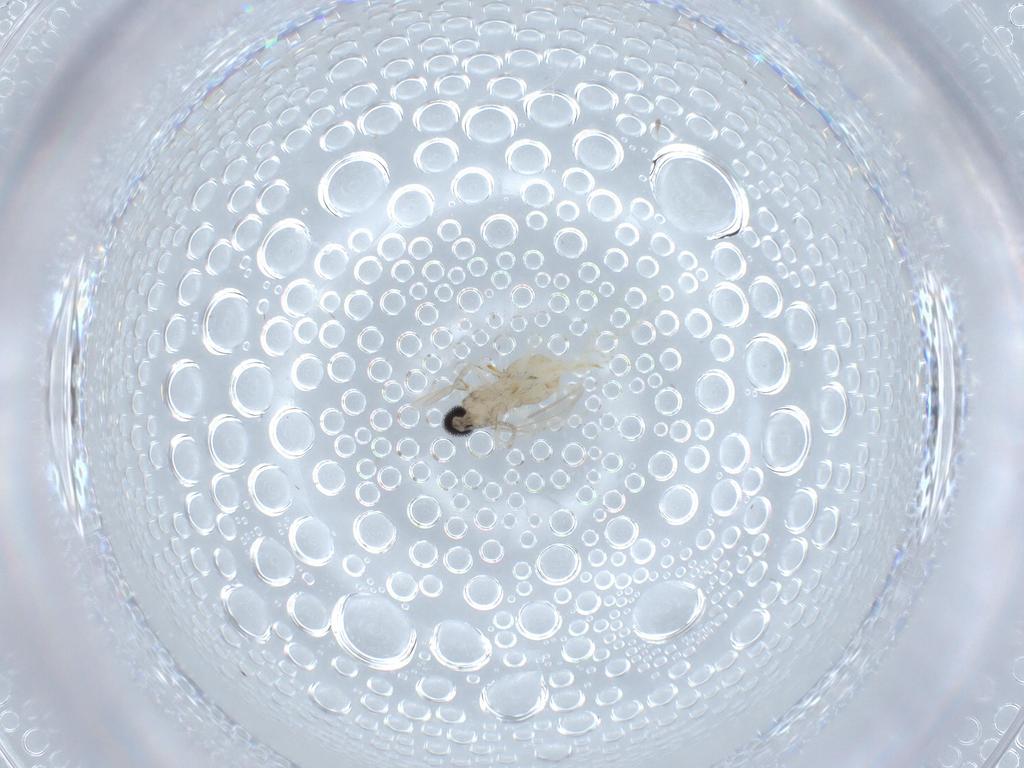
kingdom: Animalia
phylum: Arthropoda
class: Insecta
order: Diptera
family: Cecidomyiidae
